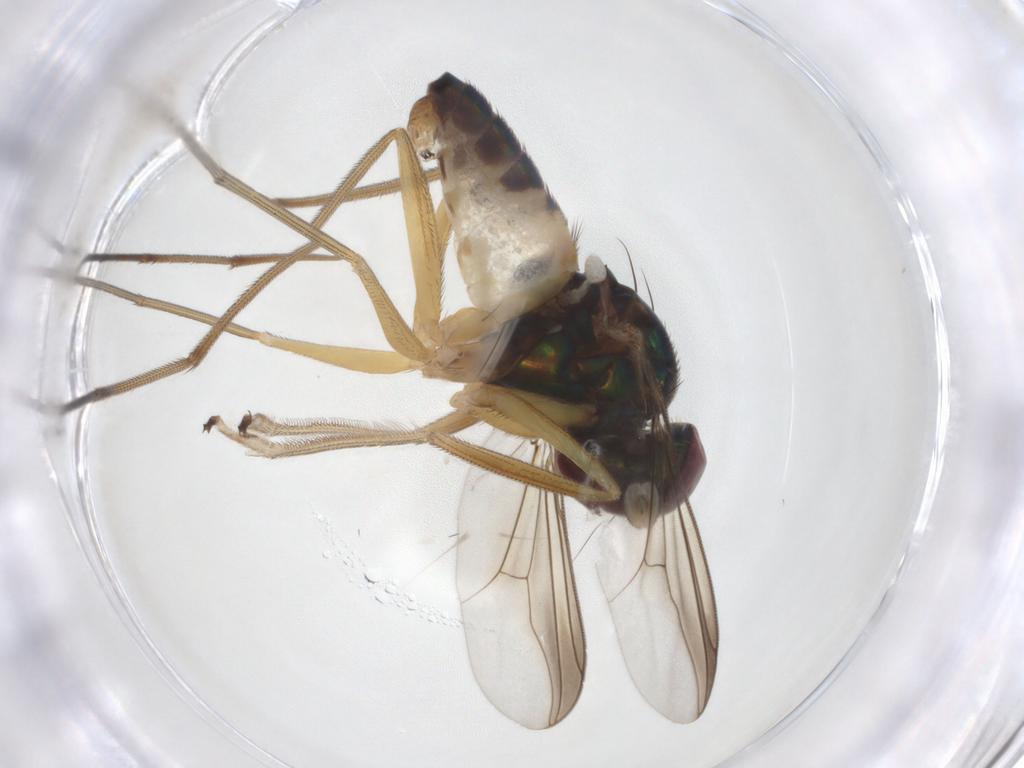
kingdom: Animalia
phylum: Arthropoda
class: Insecta
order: Diptera
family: Dolichopodidae
